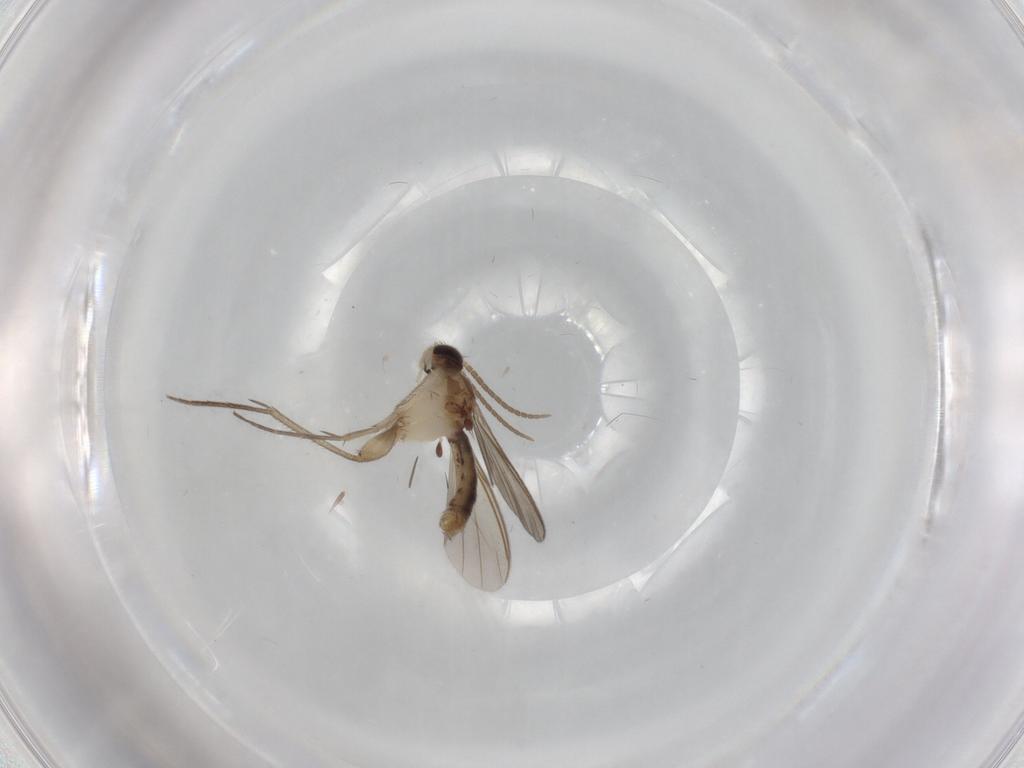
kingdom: Animalia
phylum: Arthropoda
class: Insecta
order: Diptera
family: Mycetophilidae
